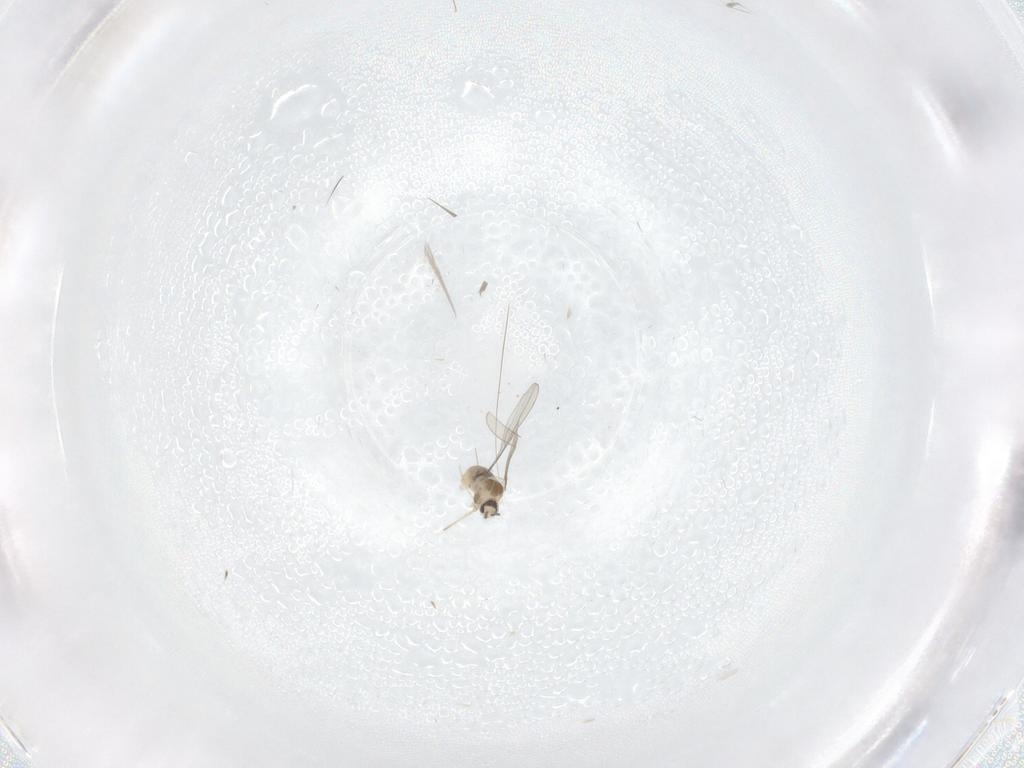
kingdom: Animalia
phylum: Arthropoda
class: Insecta
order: Diptera
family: Cecidomyiidae
